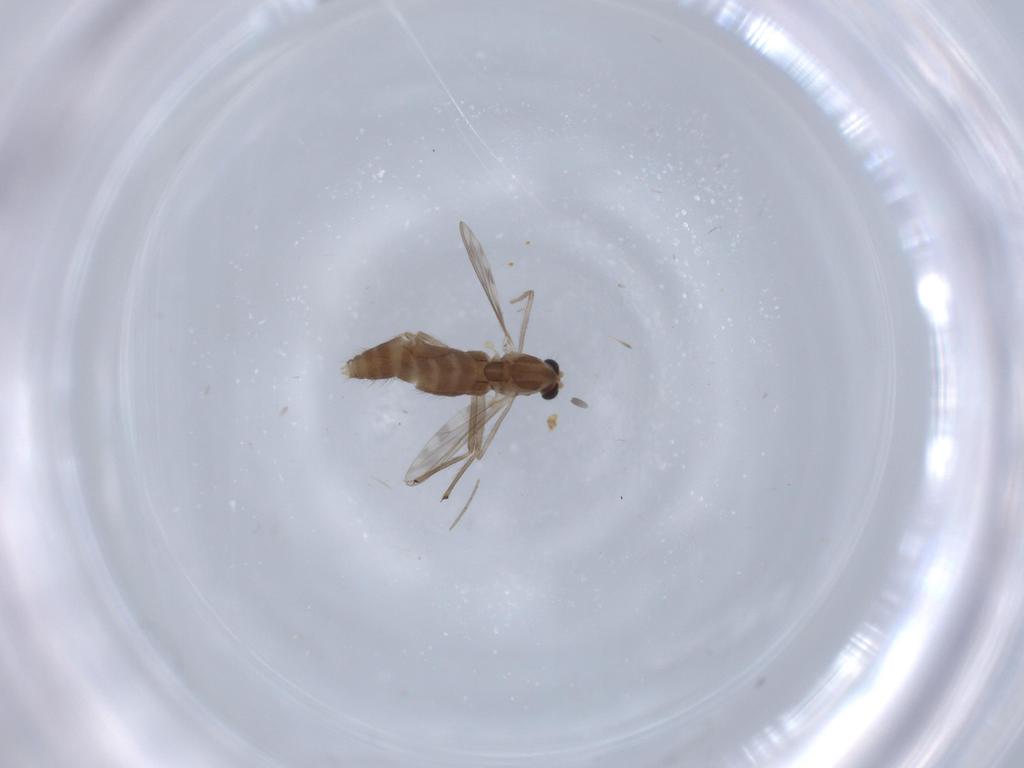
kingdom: Animalia
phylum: Arthropoda
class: Insecta
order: Diptera
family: Chironomidae
